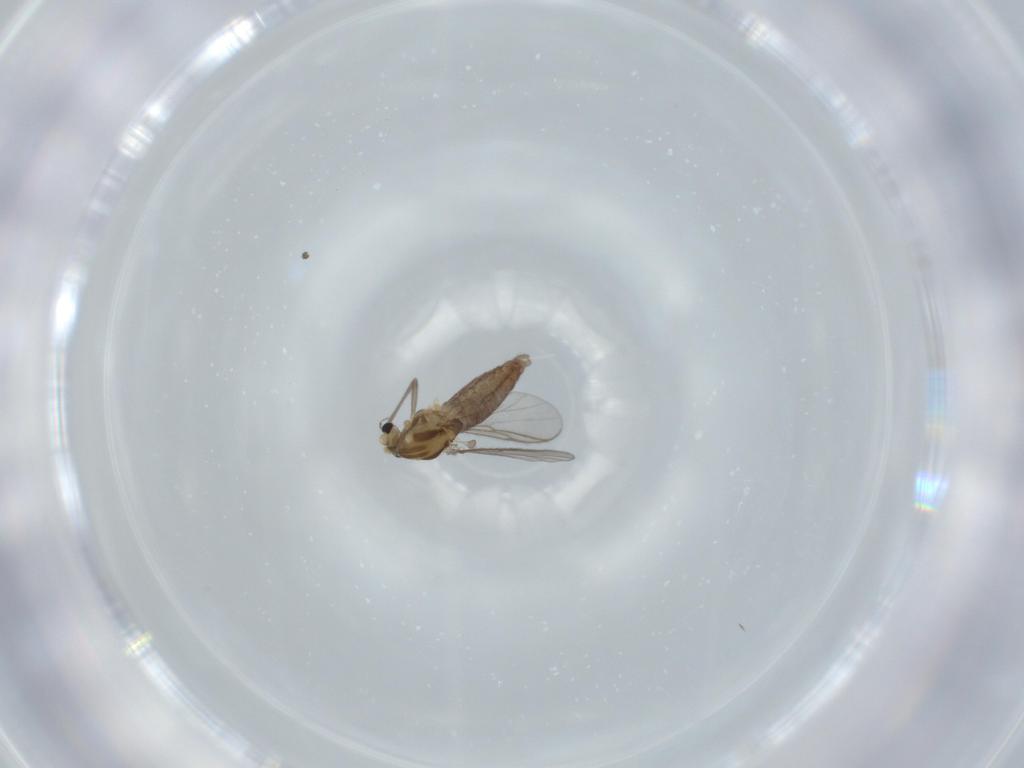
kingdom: Animalia
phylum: Arthropoda
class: Insecta
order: Diptera
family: Chironomidae
